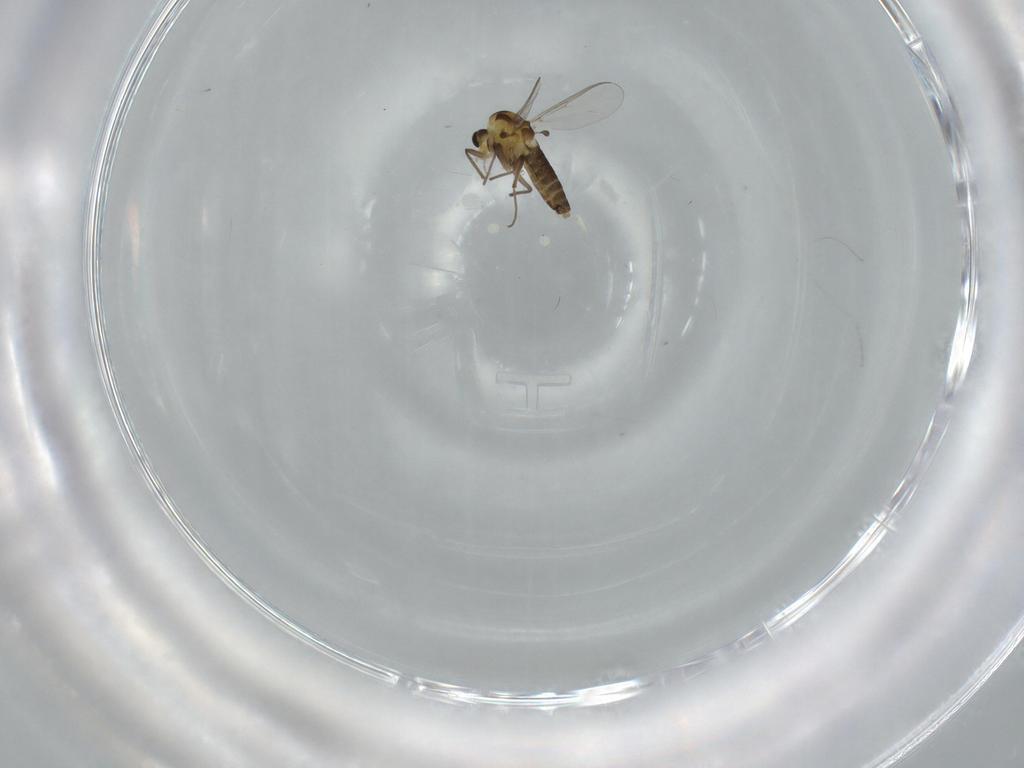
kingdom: Animalia
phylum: Arthropoda
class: Insecta
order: Diptera
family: Chironomidae
